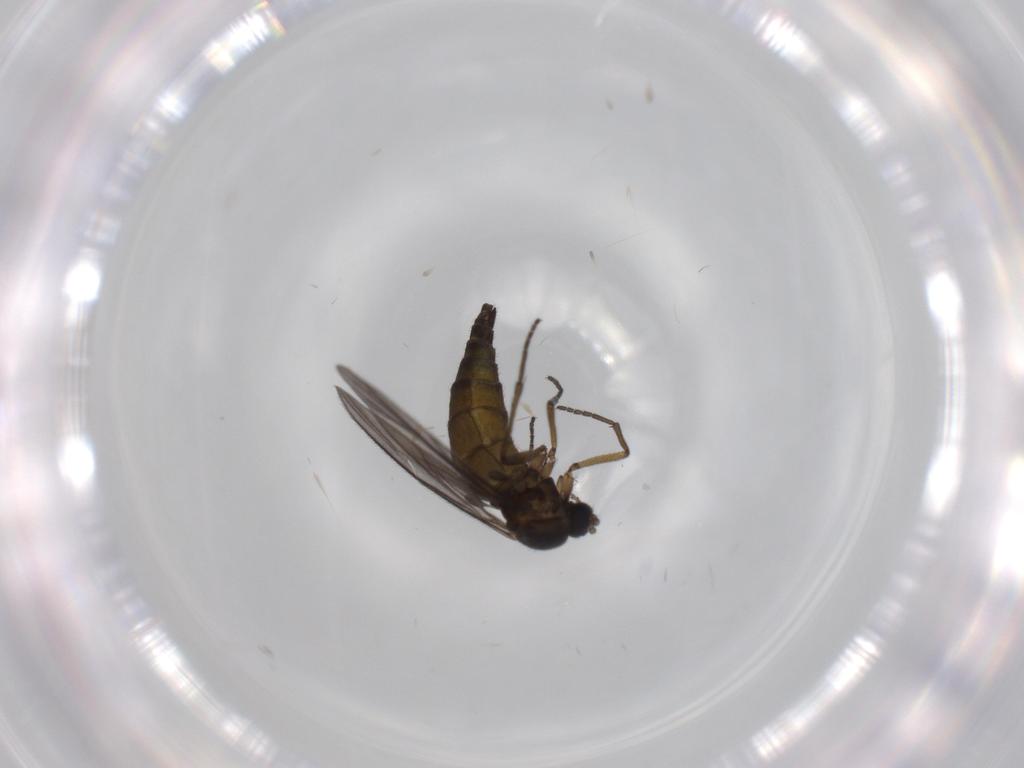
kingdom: Animalia
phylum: Arthropoda
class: Insecta
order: Diptera
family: Sciaridae
